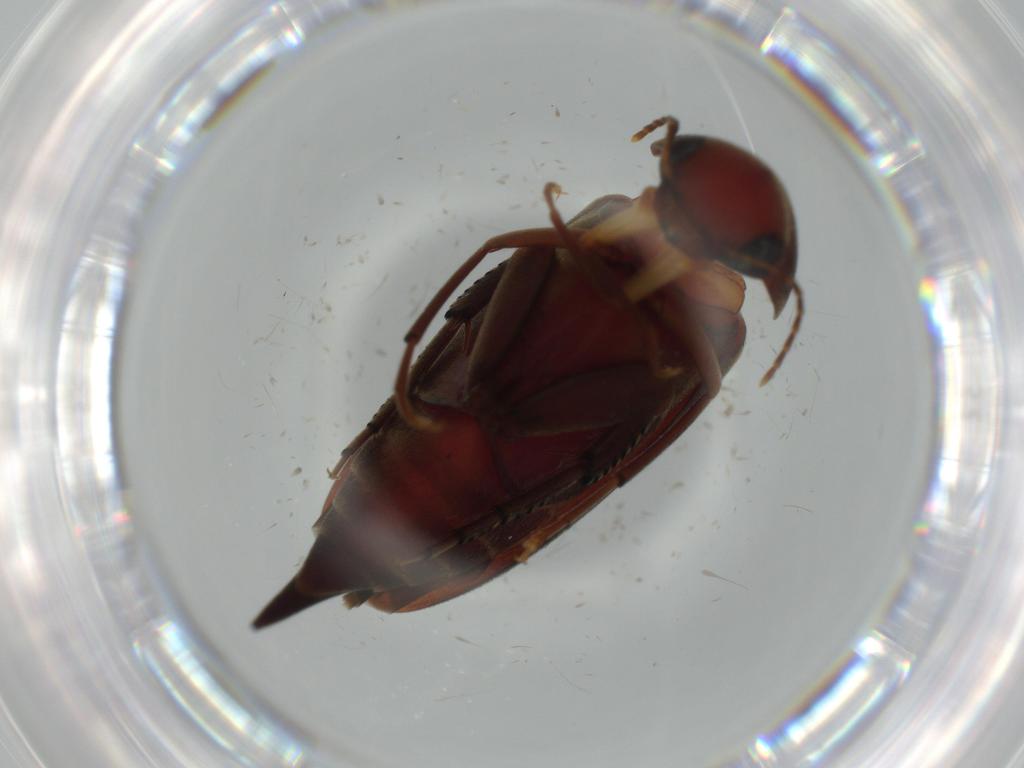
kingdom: Animalia
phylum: Arthropoda
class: Insecta
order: Coleoptera
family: Mordellidae
